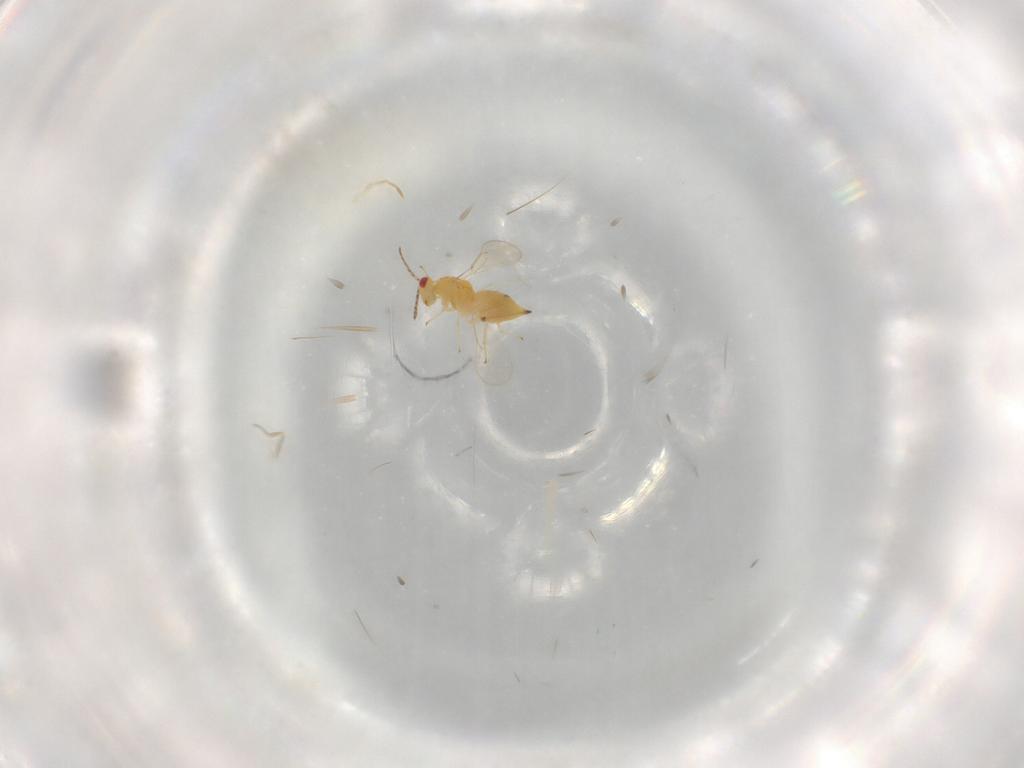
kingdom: Animalia
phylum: Arthropoda
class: Insecta
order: Hymenoptera
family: Eulophidae
